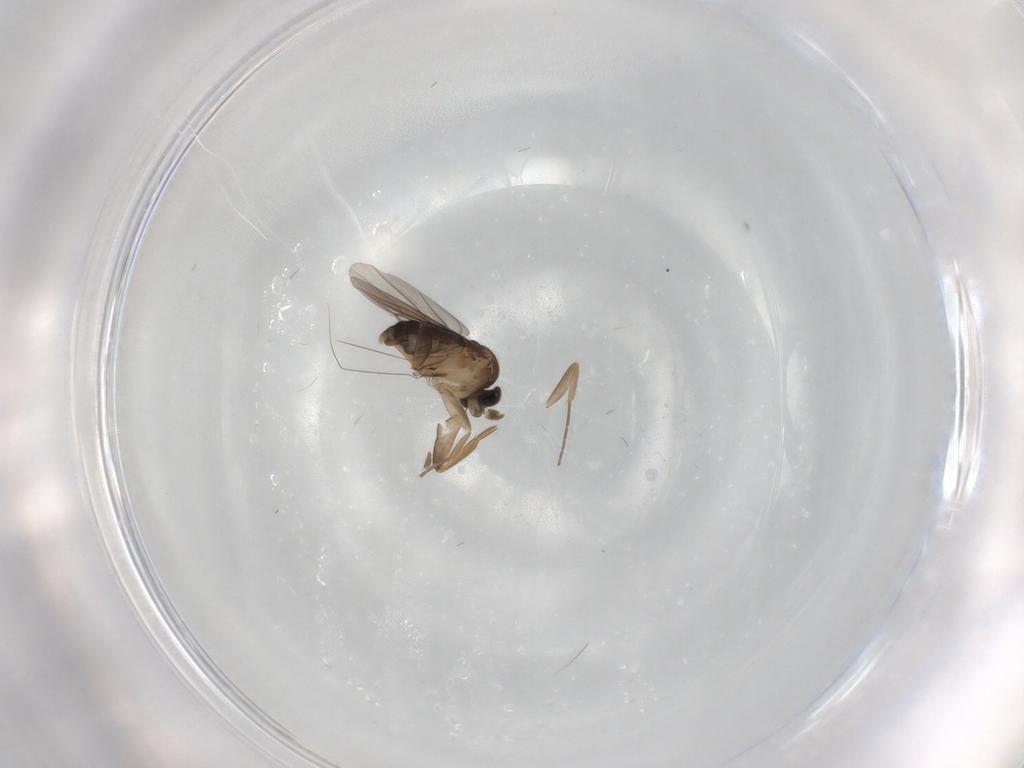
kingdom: Animalia
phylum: Arthropoda
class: Insecta
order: Diptera
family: Phoridae
